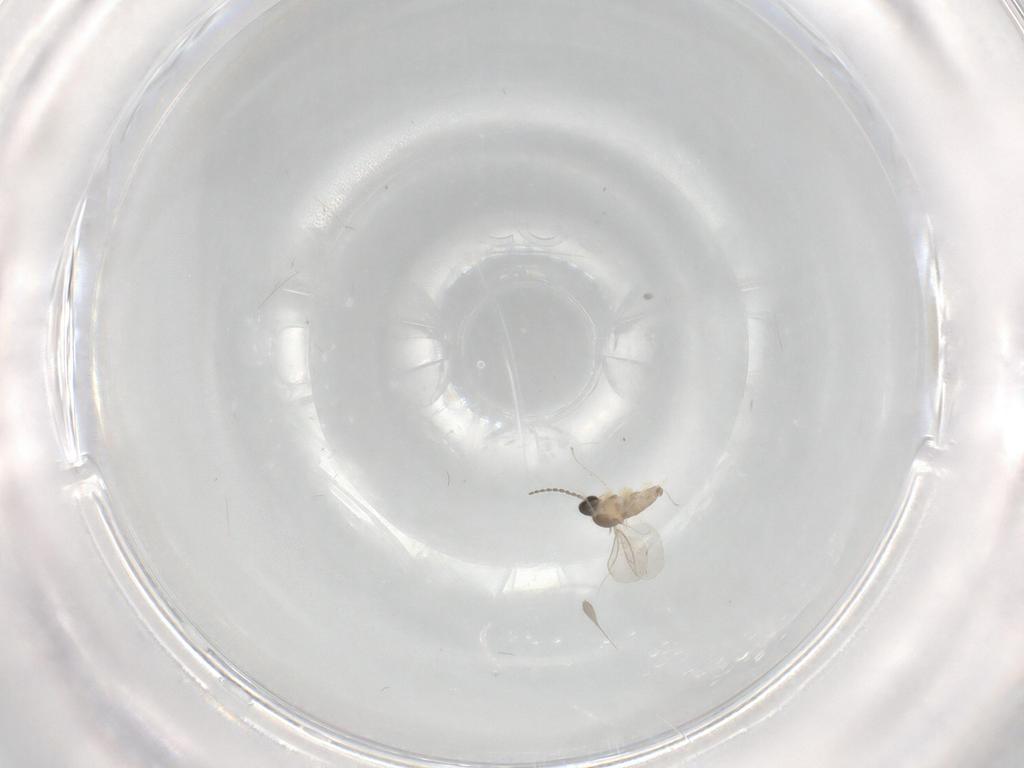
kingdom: Animalia
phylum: Arthropoda
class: Insecta
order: Diptera
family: Cecidomyiidae
